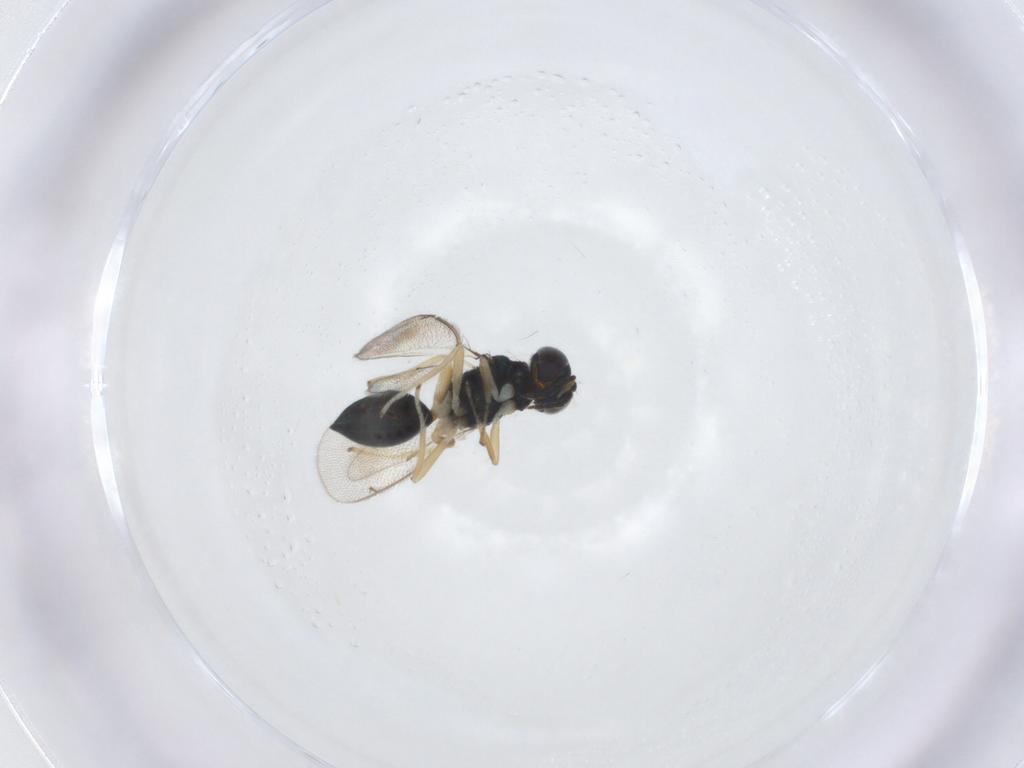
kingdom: Animalia
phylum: Arthropoda
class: Insecta
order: Hymenoptera
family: Eulophidae
